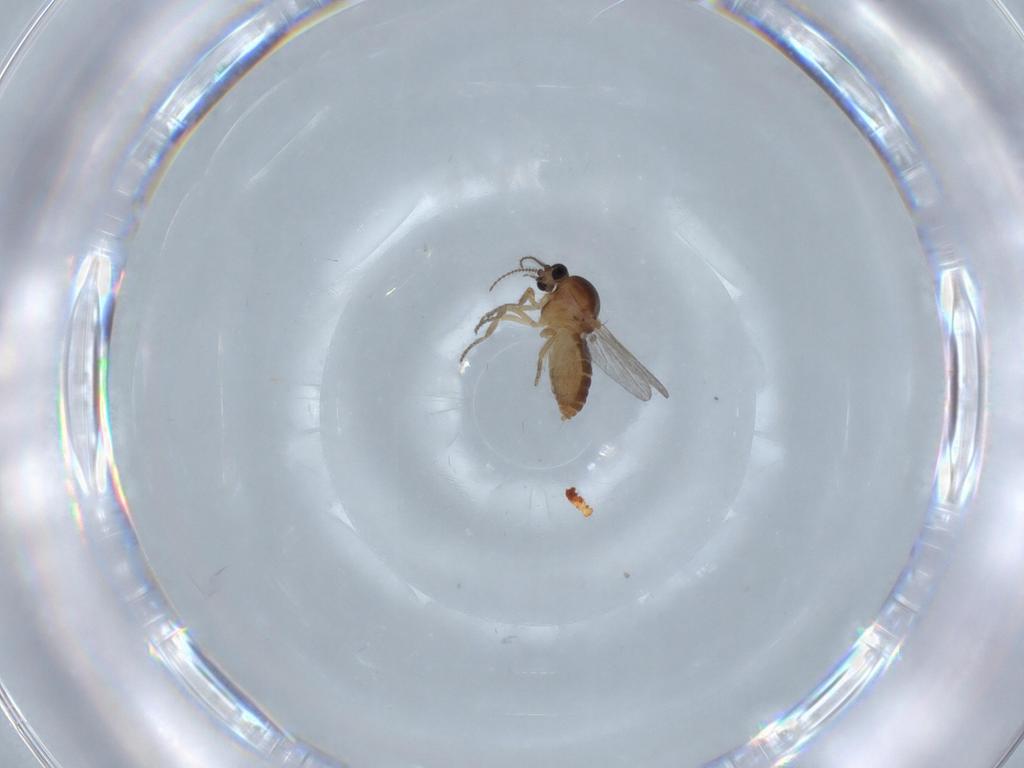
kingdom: Animalia
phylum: Arthropoda
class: Insecta
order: Diptera
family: Ceratopogonidae
